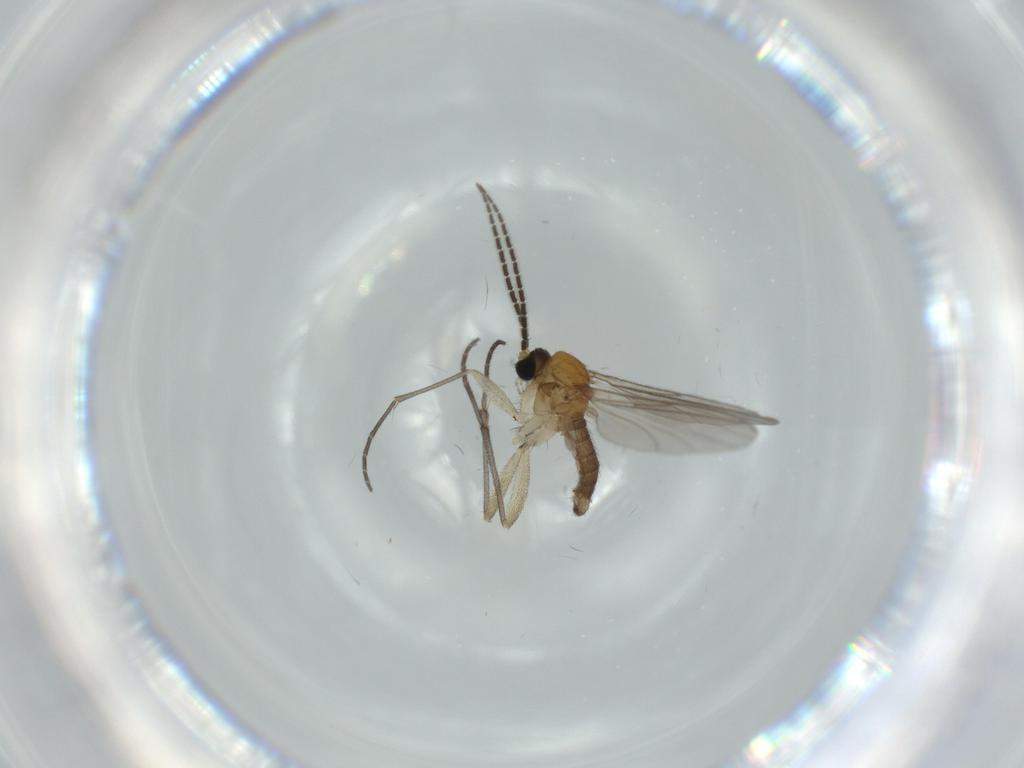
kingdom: Animalia
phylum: Arthropoda
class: Insecta
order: Diptera
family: Sciaridae
